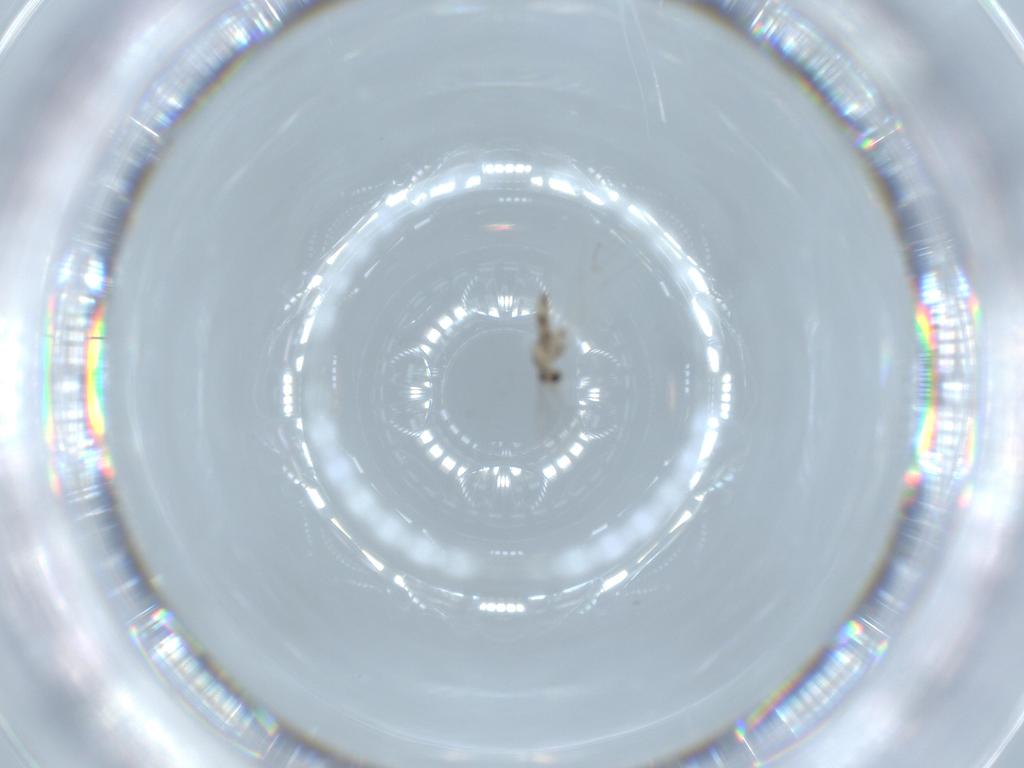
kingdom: Animalia
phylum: Arthropoda
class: Insecta
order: Diptera
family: Cecidomyiidae
